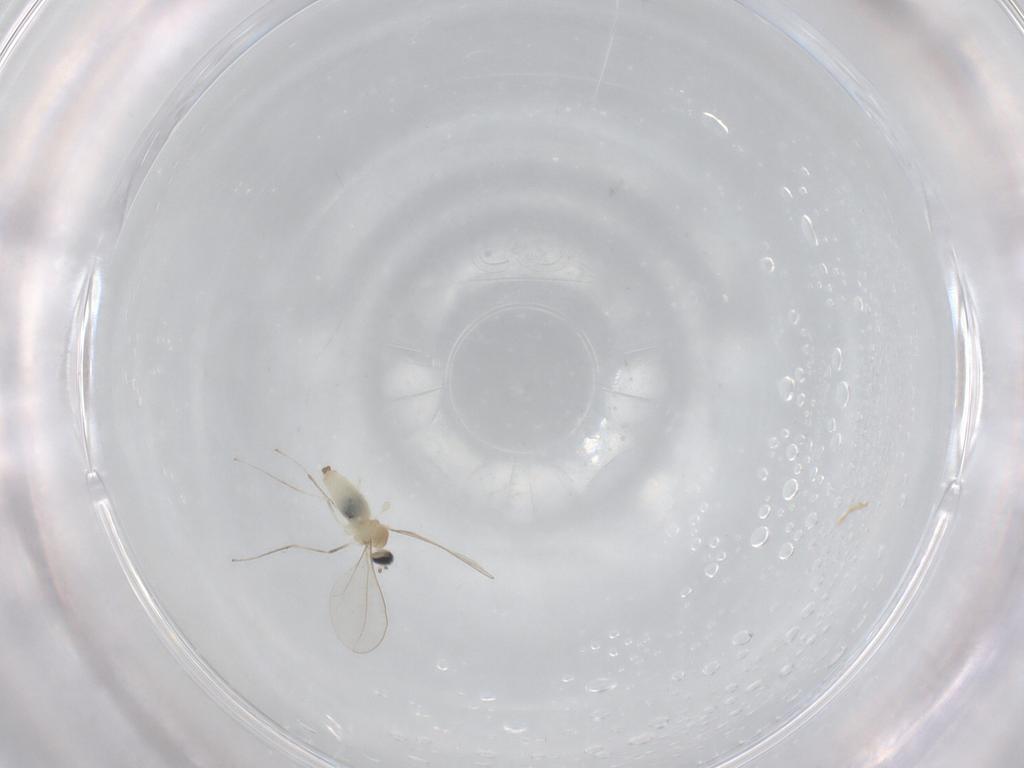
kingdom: Animalia
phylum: Arthropoda
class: Insecta
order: Diptera
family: Cecidomyiidae
